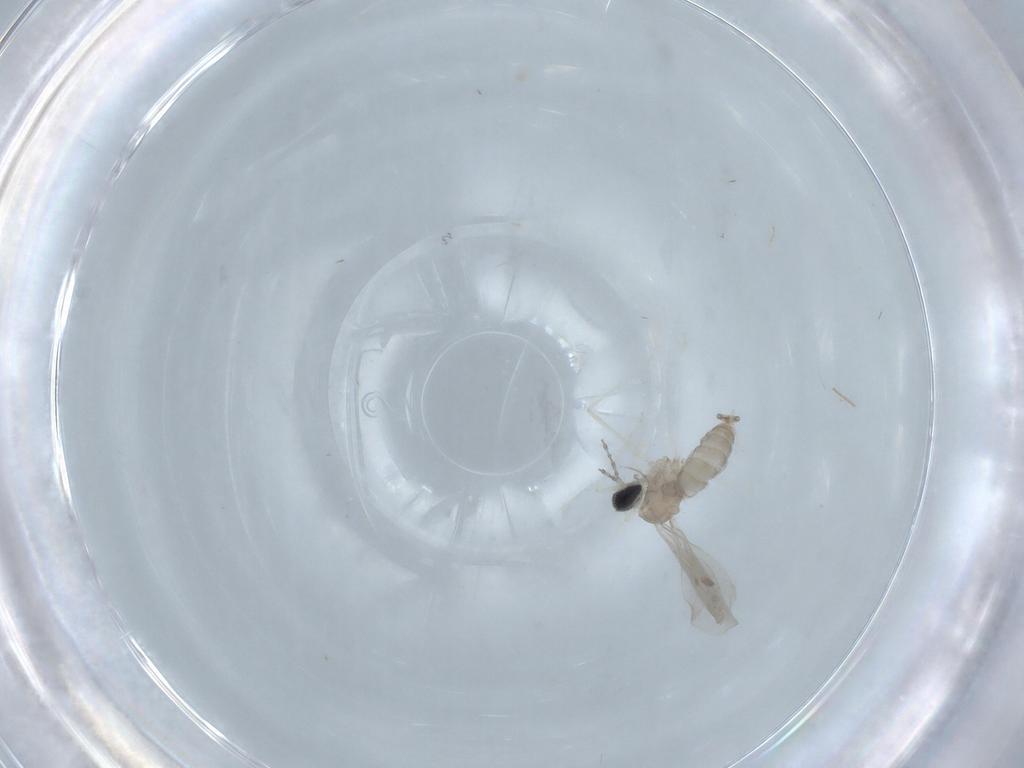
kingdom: Animalia
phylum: Arthropoda
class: Insecta
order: Diptera
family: Cecidomyiidae
